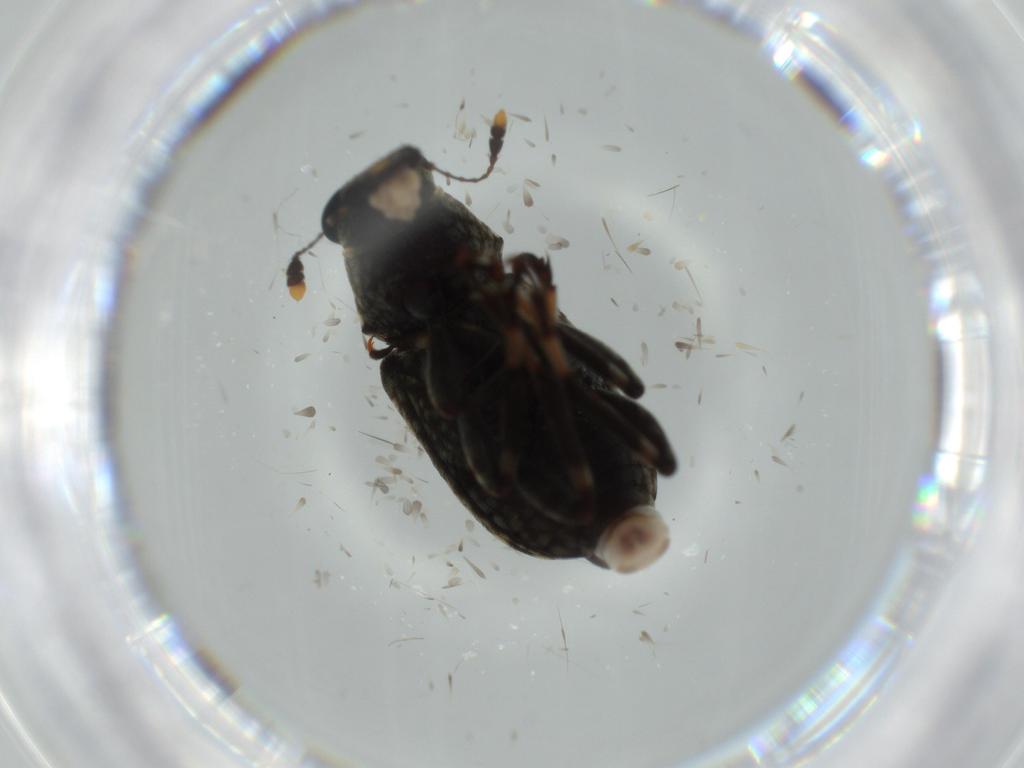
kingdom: Animalia
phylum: Arthropoda
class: Insecta
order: Coleoptera
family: Anthribidae
